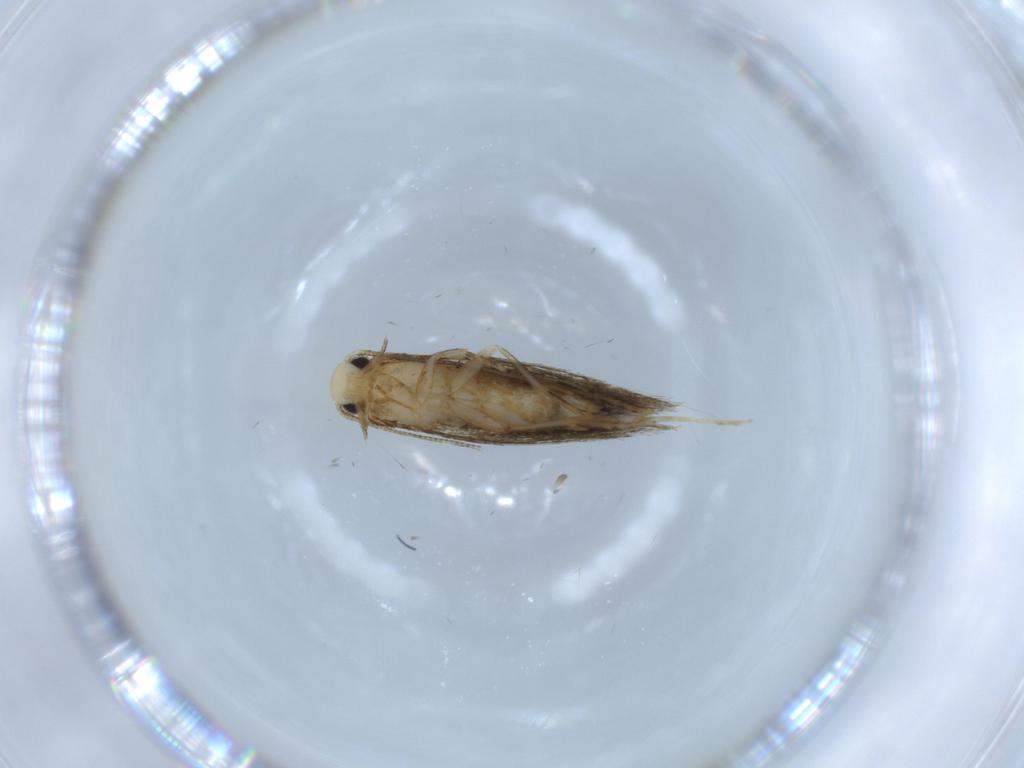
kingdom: Animalia
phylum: Arthropoda
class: Insecta
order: Lepidoptera
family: Tineidae
